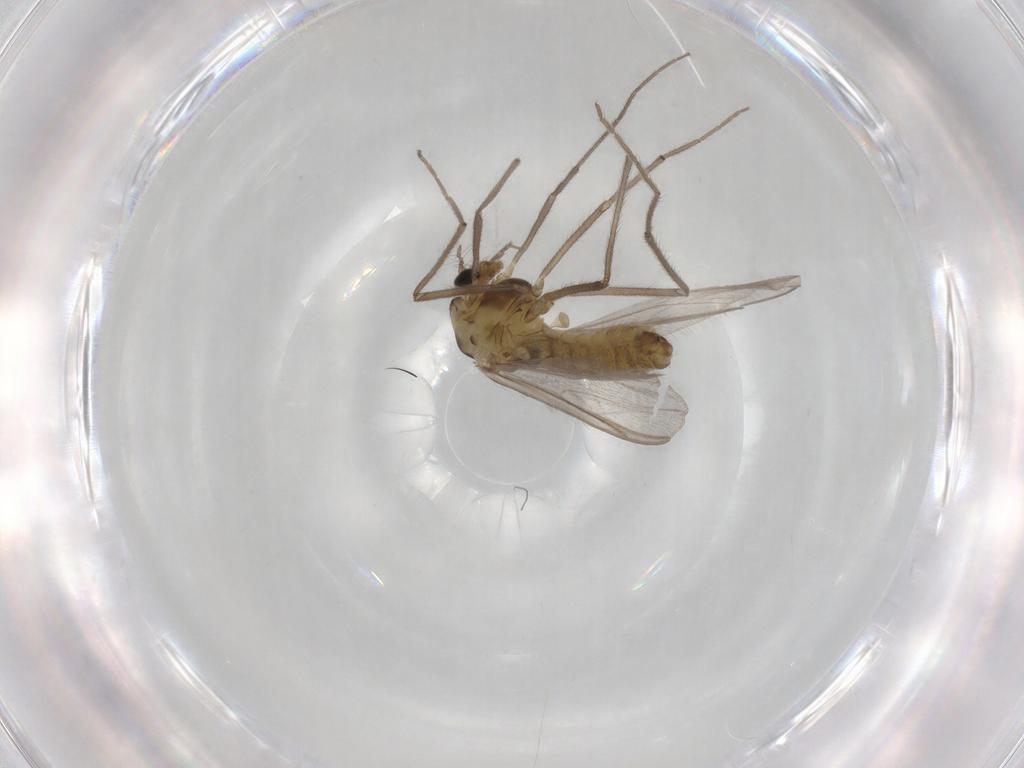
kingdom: Animalia
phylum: Arthropoda
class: Insecta
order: Diptera
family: Chironomidae
